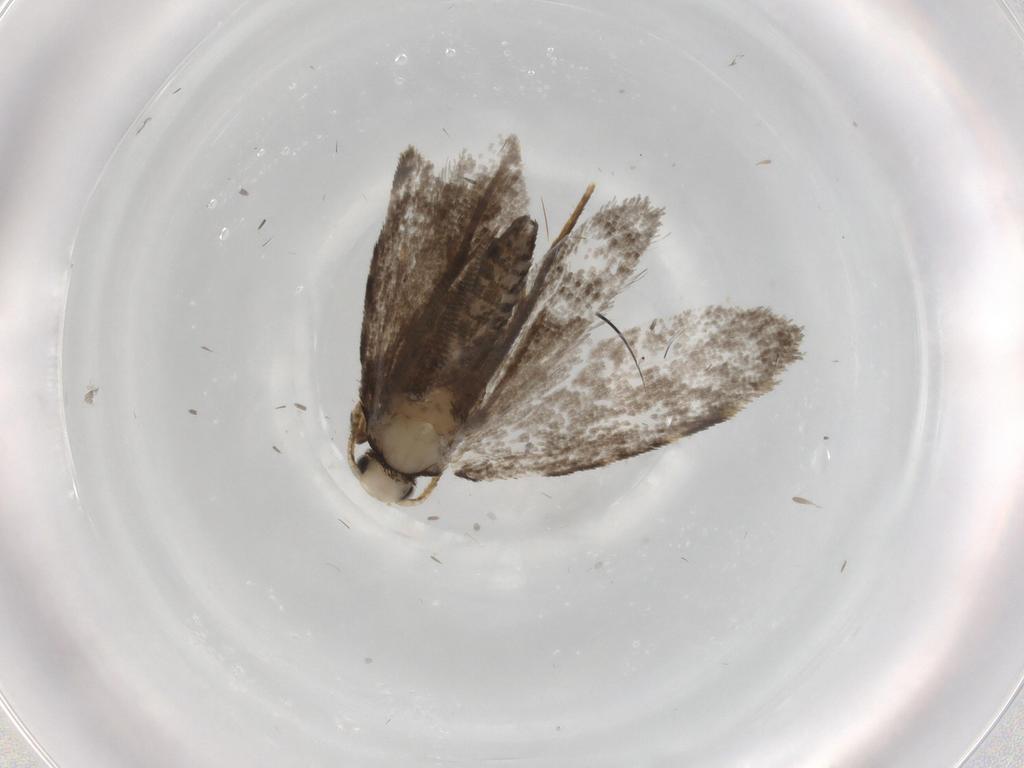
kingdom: Animalia
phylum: Arthropoda
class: Insecta
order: Lepidoptera
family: Psychidae
